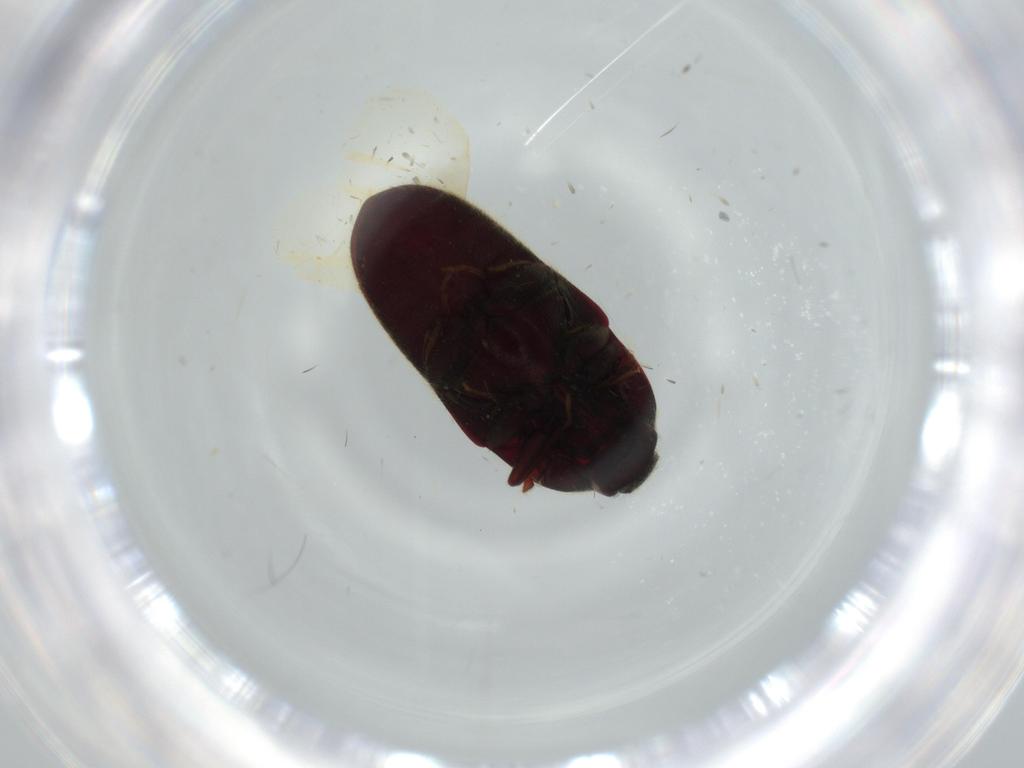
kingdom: Animalia
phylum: Arthropoda
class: Insecta
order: Coleoptera
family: Throscidae
